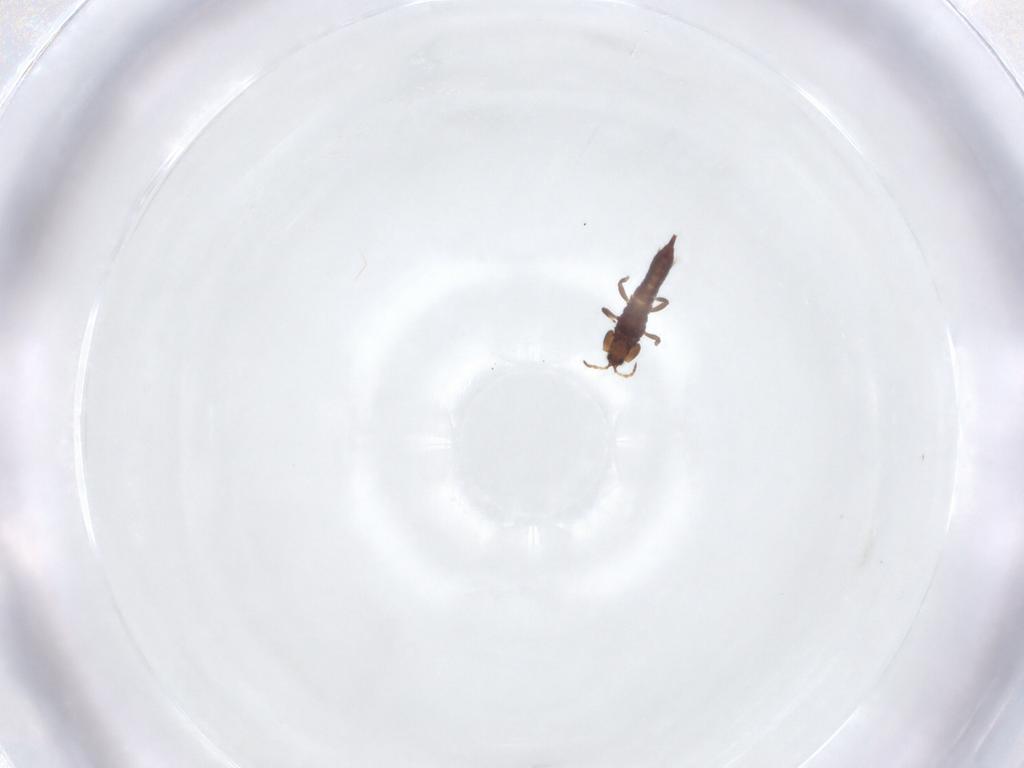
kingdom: Animalia
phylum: Arthropoda
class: Insecta
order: Thysanoptera
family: Phlaeothripidae
